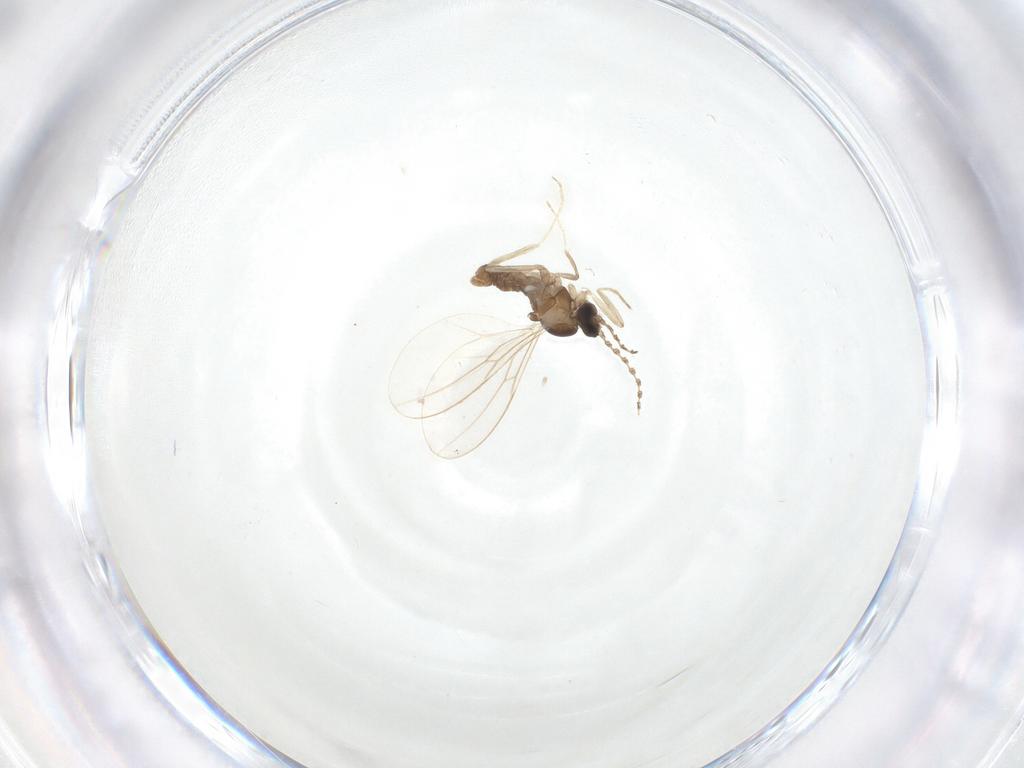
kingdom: Animalia
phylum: Arthropoda
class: Insecta
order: Diptera
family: Cecidomyiidae
